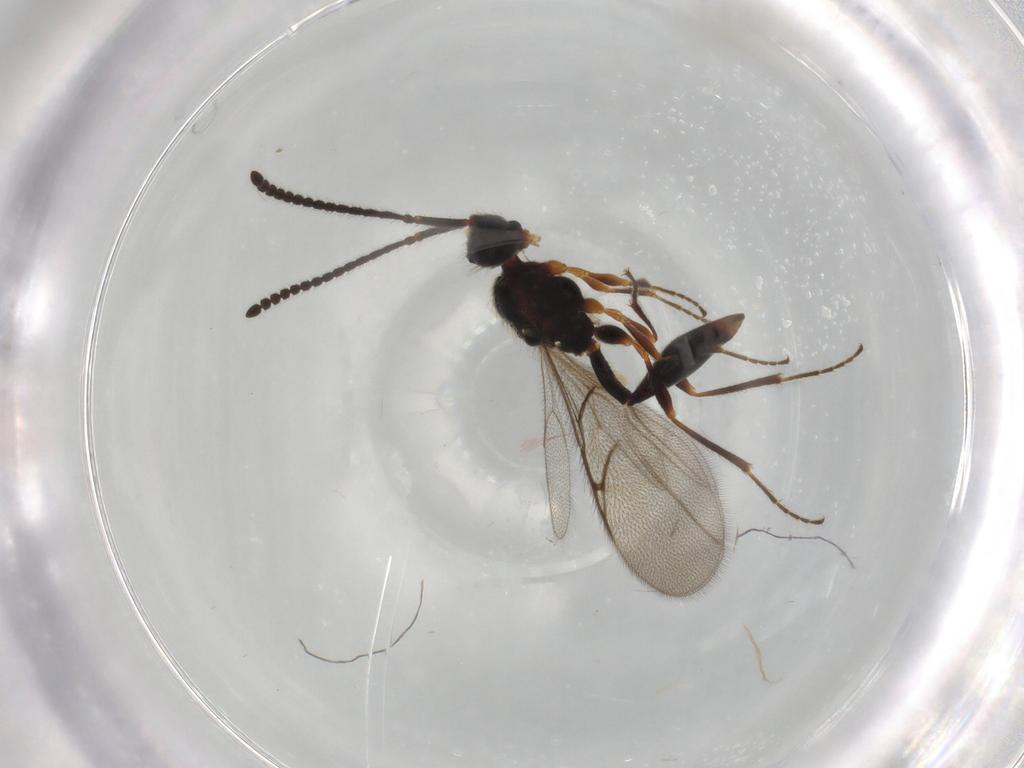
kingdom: Animalia
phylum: Arthropoda
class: Insecta
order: Hymenoptera
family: Diapriidae
